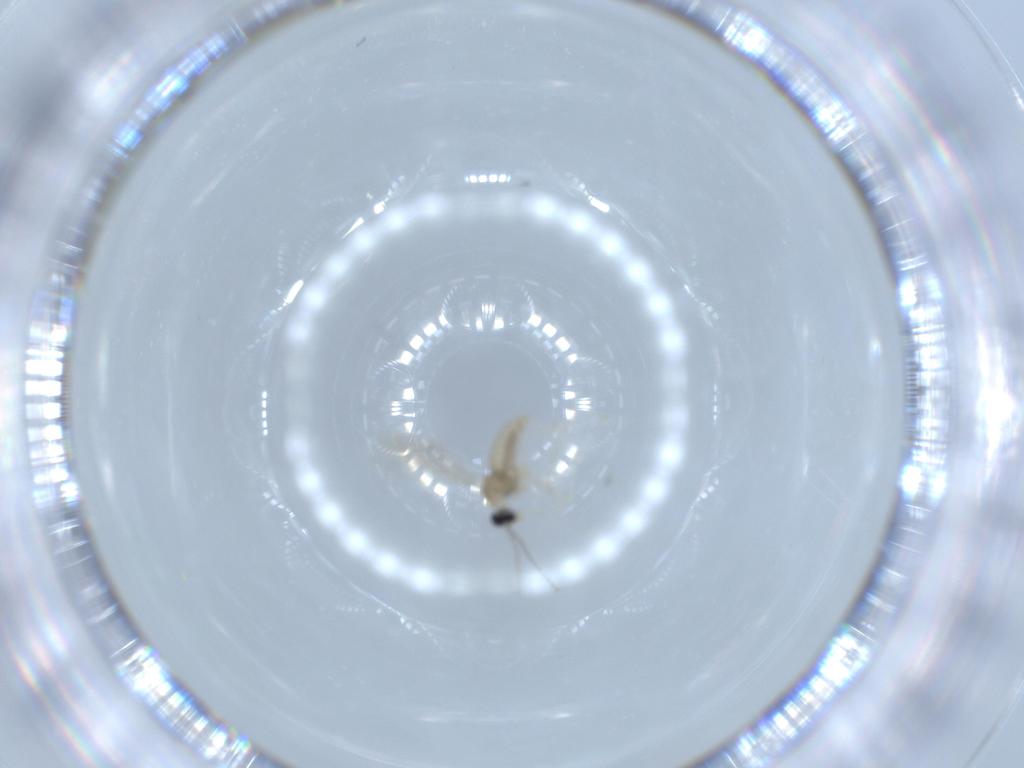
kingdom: Animalia
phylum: Arthropoda
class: Insecta
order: Diptera
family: Cecidomyiidae
